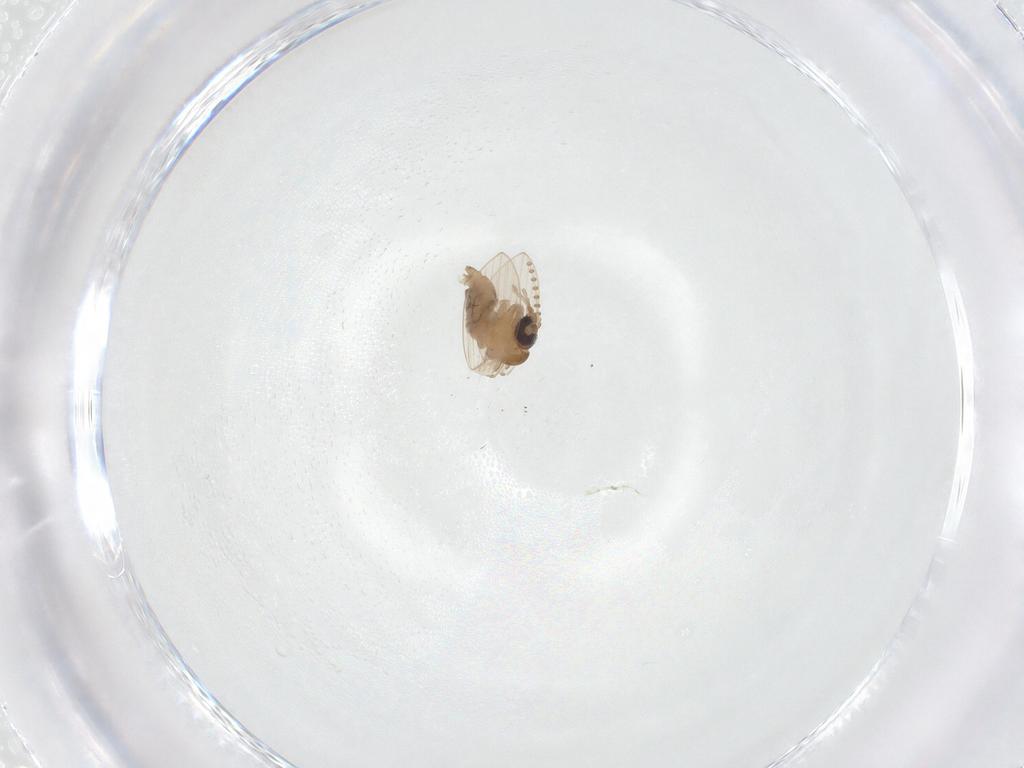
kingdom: Animalia
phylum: Arthropoda
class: Insecta
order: Diptera
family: Psychodidae
